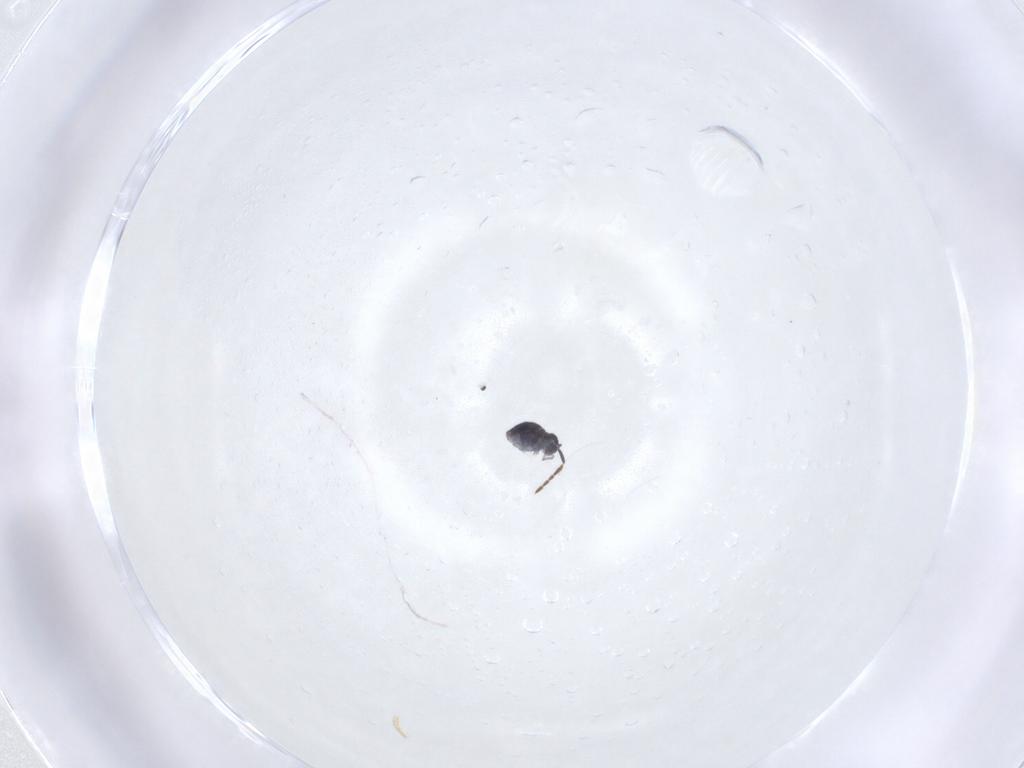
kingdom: Animalia
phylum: Arthropoda
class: Collembola
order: Symphypleona
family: Katiannidae
